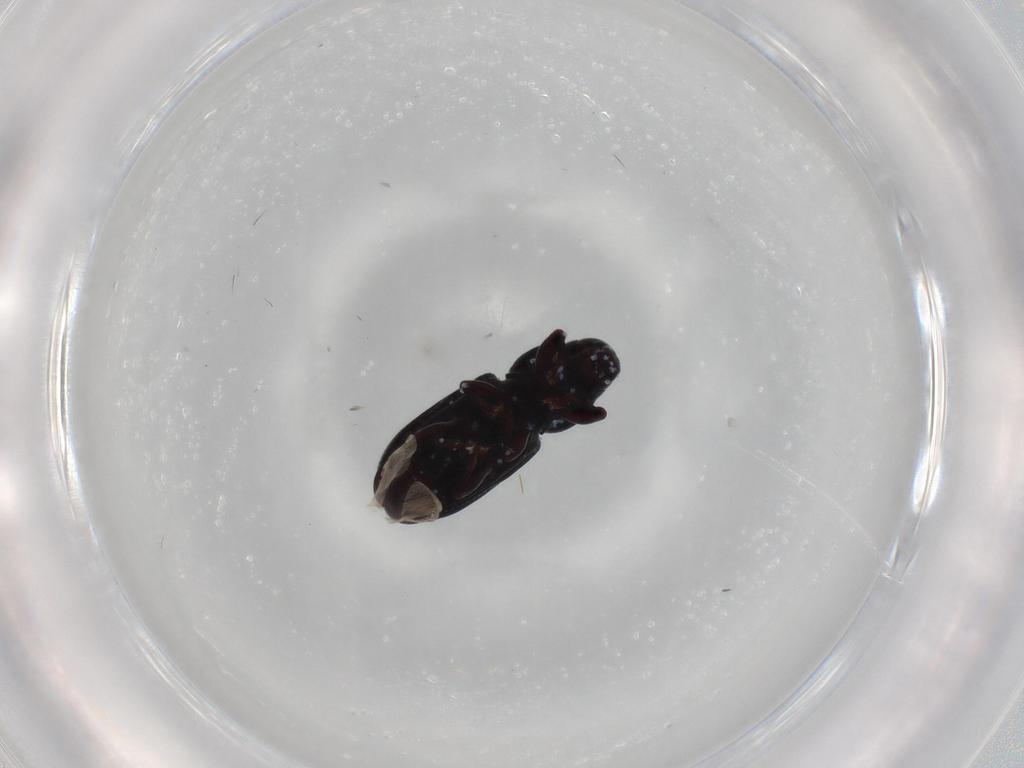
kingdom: Animalia
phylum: Arthropoda
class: Insecta
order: Coleoptera
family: Curculionidae
